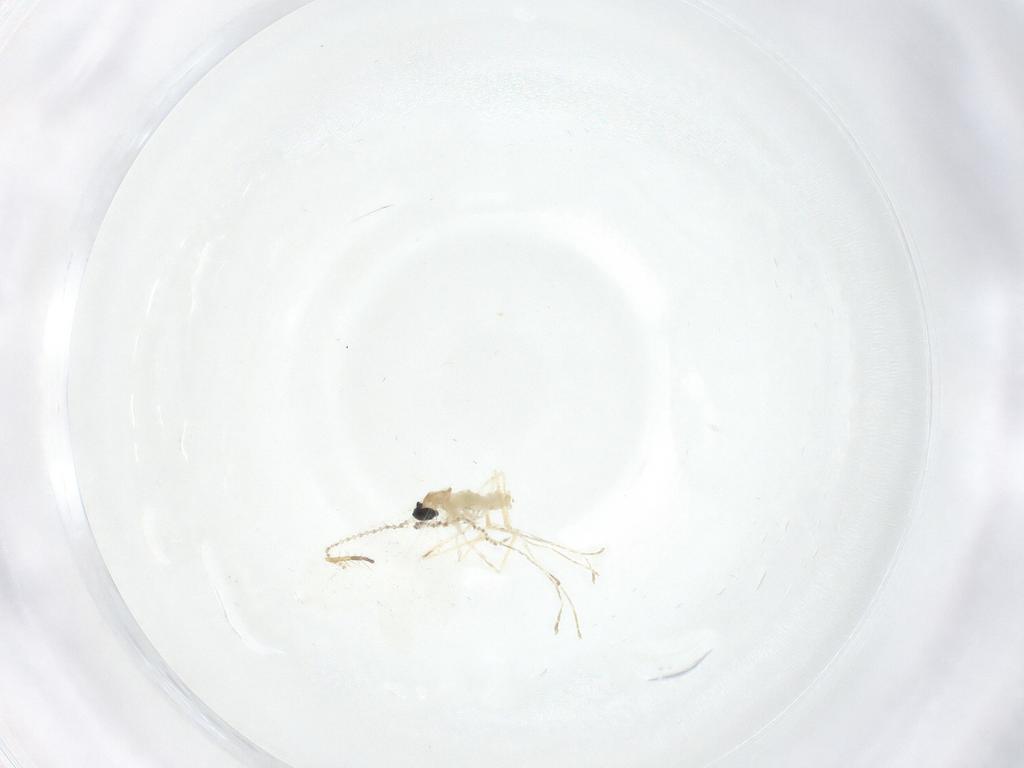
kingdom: Animalia
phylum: Arthropoda
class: Insecta
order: Diptera
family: Cecidomyiidae
